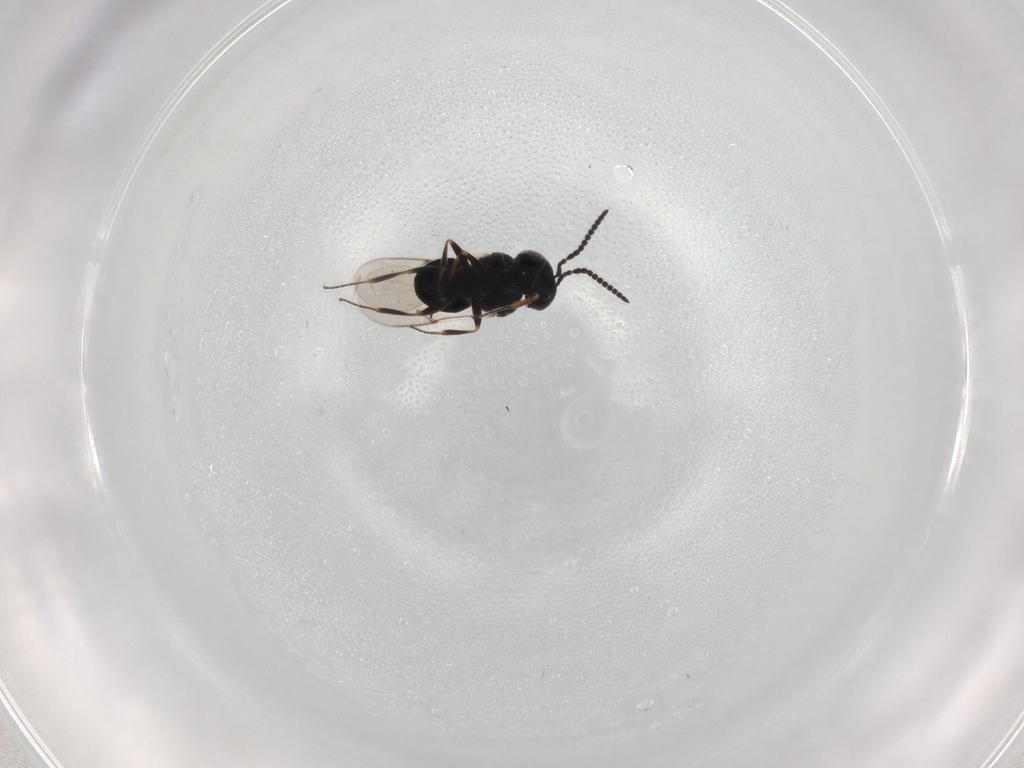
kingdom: Animalia
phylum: Arthropoda
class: Insecta
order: Hymenoptera
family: Scelionidae
